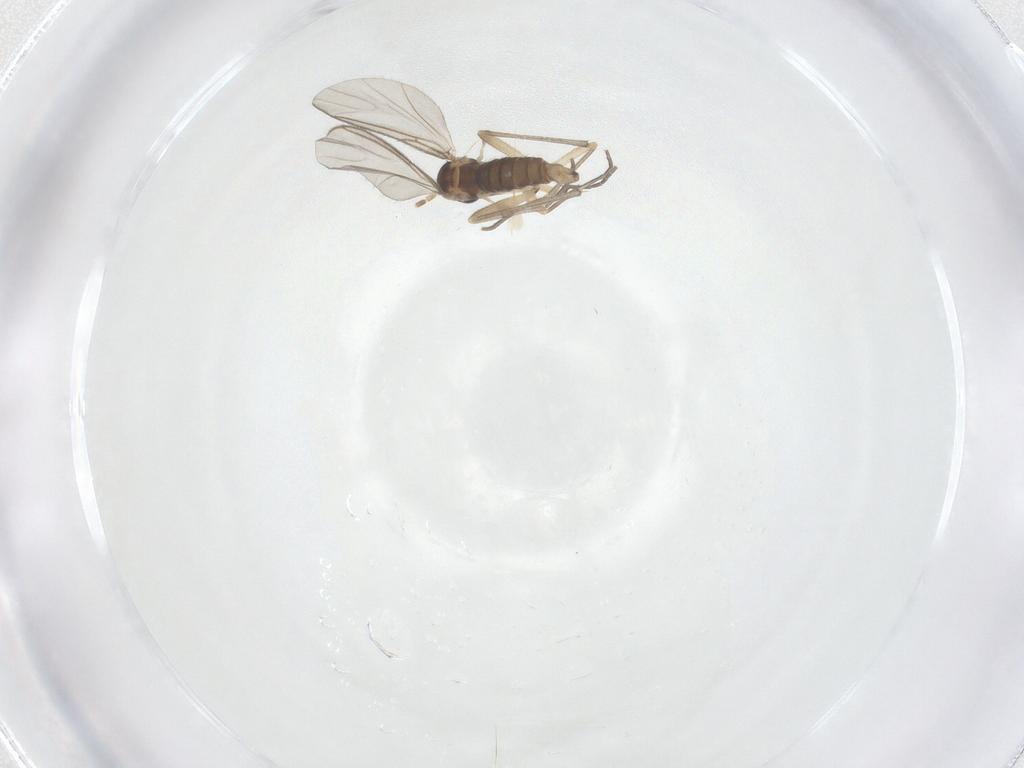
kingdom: Animalia
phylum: Arthropoda
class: Insecta
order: Diptera
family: Sciaridae
